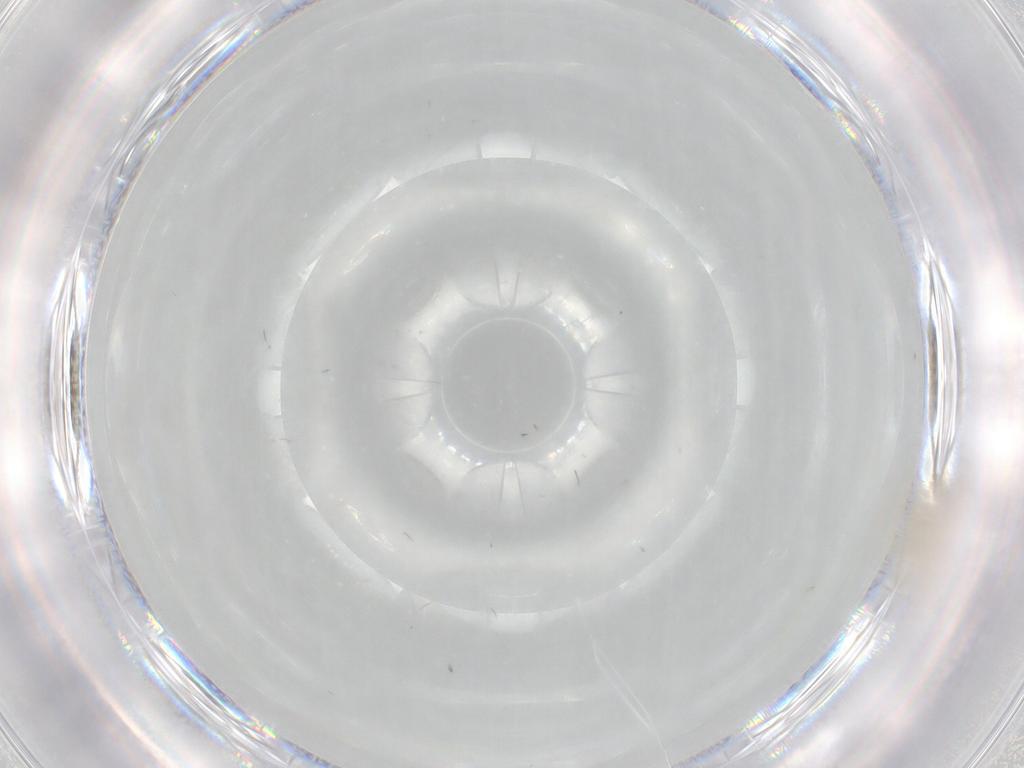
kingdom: Animalia
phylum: Arthropoda
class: Insecta
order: Diptera
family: Cecidomyiidae
